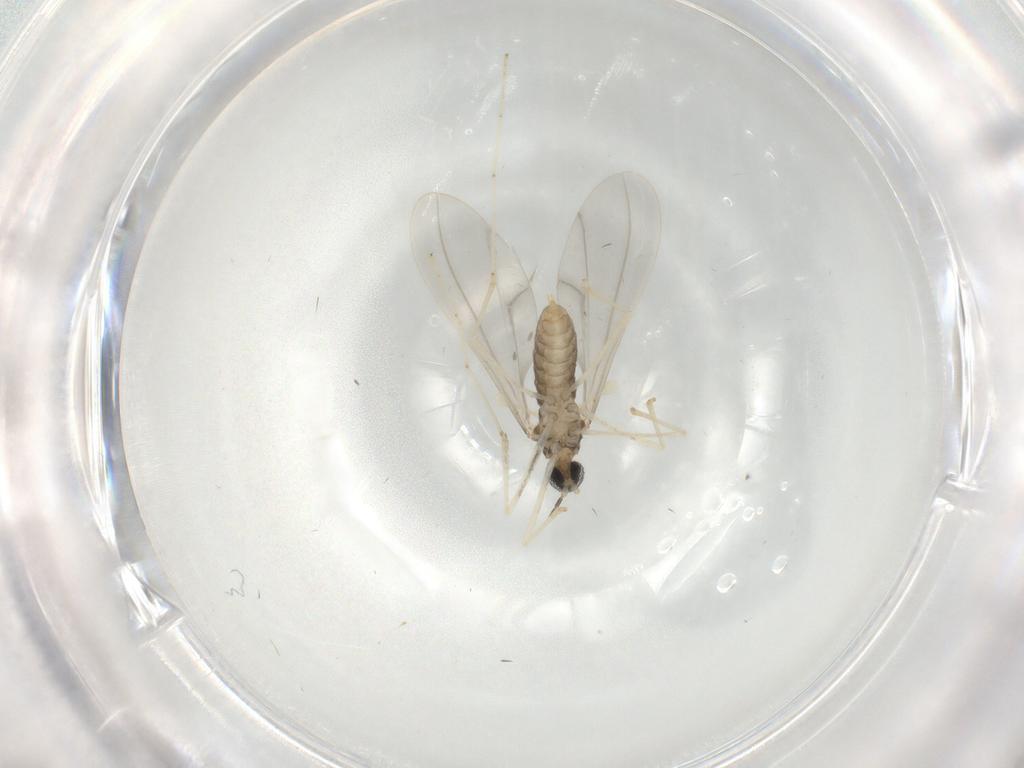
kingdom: Animalia
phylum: Arthropoda
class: Insecta
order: Diptera
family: Cecidomyiidae
